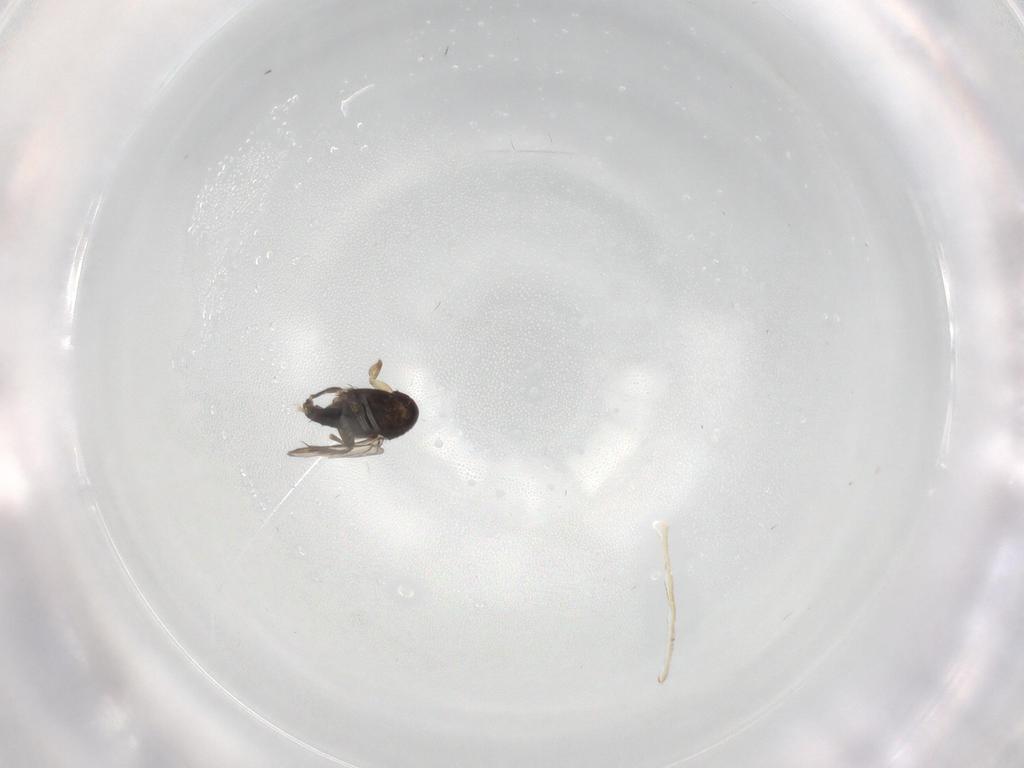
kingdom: Animalia
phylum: Arthropoda
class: Insecta
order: Diptera
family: Phoridae
